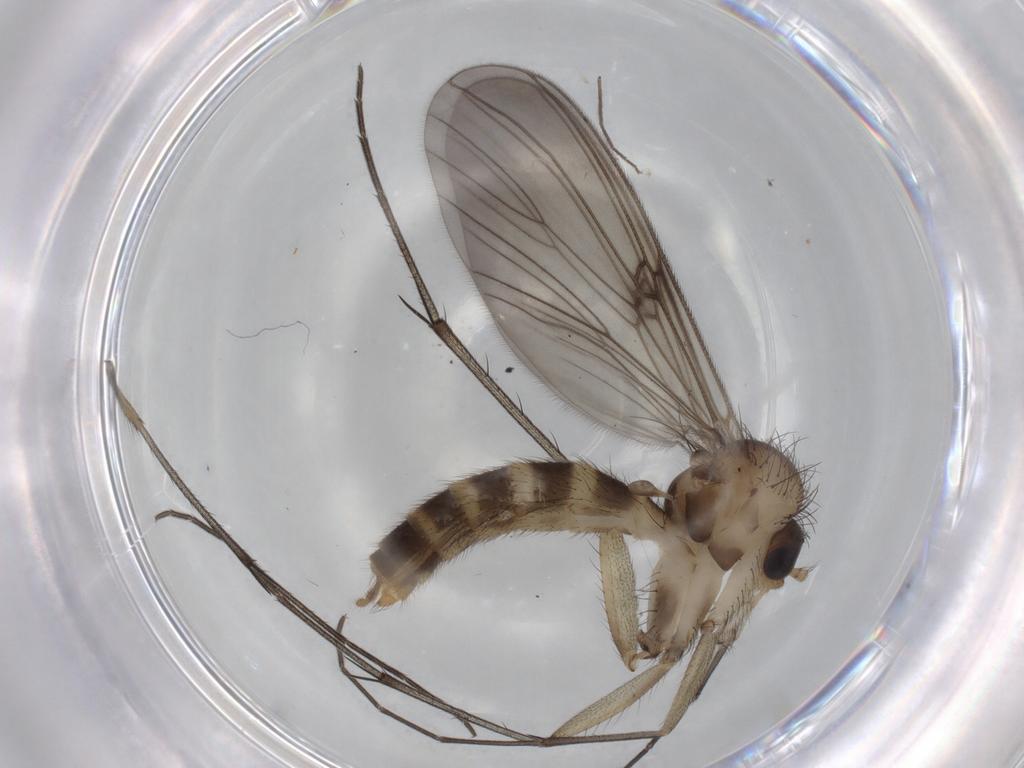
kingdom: Animalia
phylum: Arthropoda
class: Insecta
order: Diptera
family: Mycetophilidae
